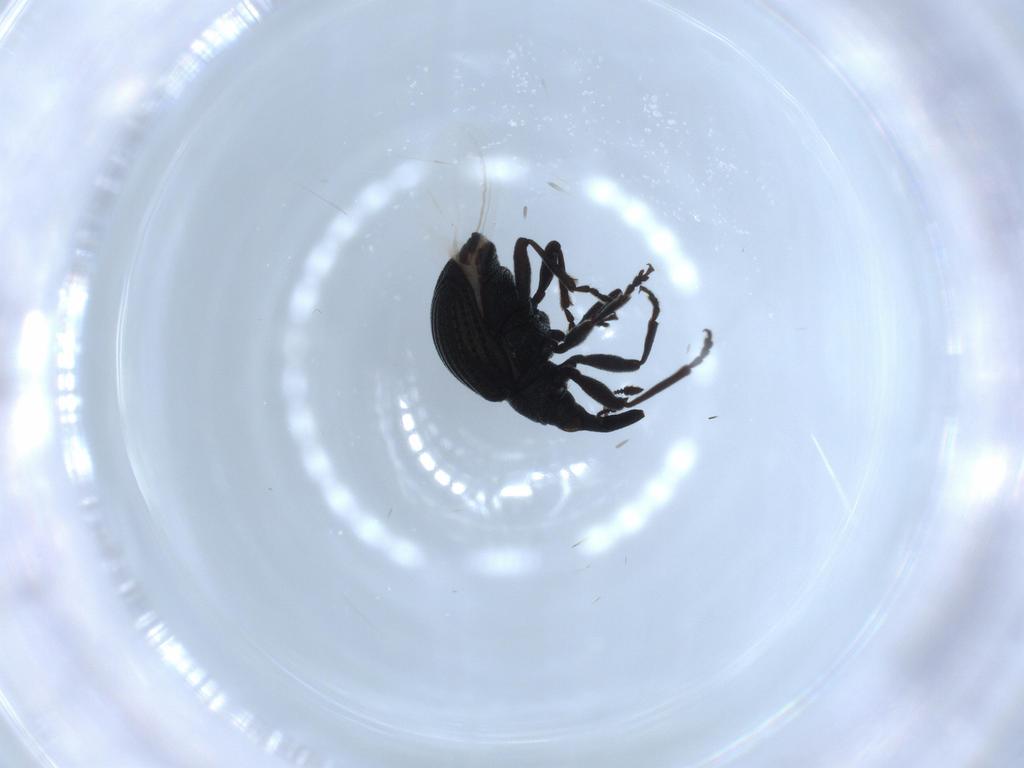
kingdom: Animalia
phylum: Arthropoda
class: Insecta
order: Coleoptera
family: Brentidae
